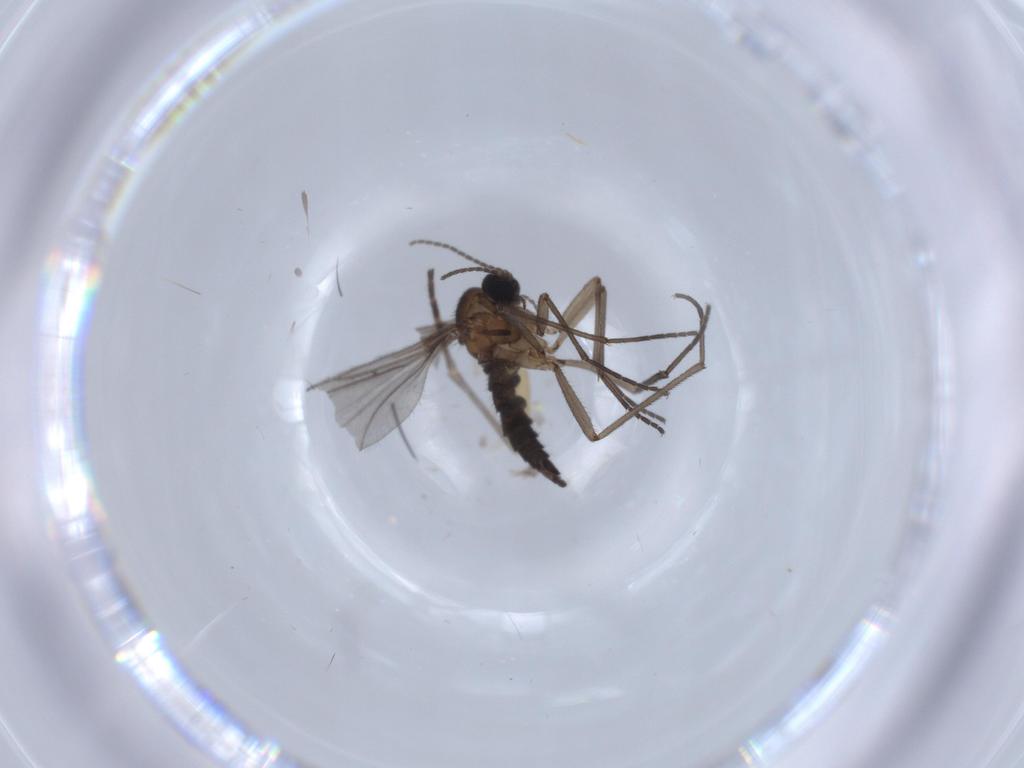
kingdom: Animalia
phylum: Arthropoda
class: Insecta
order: Diptera
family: Sciaridae
